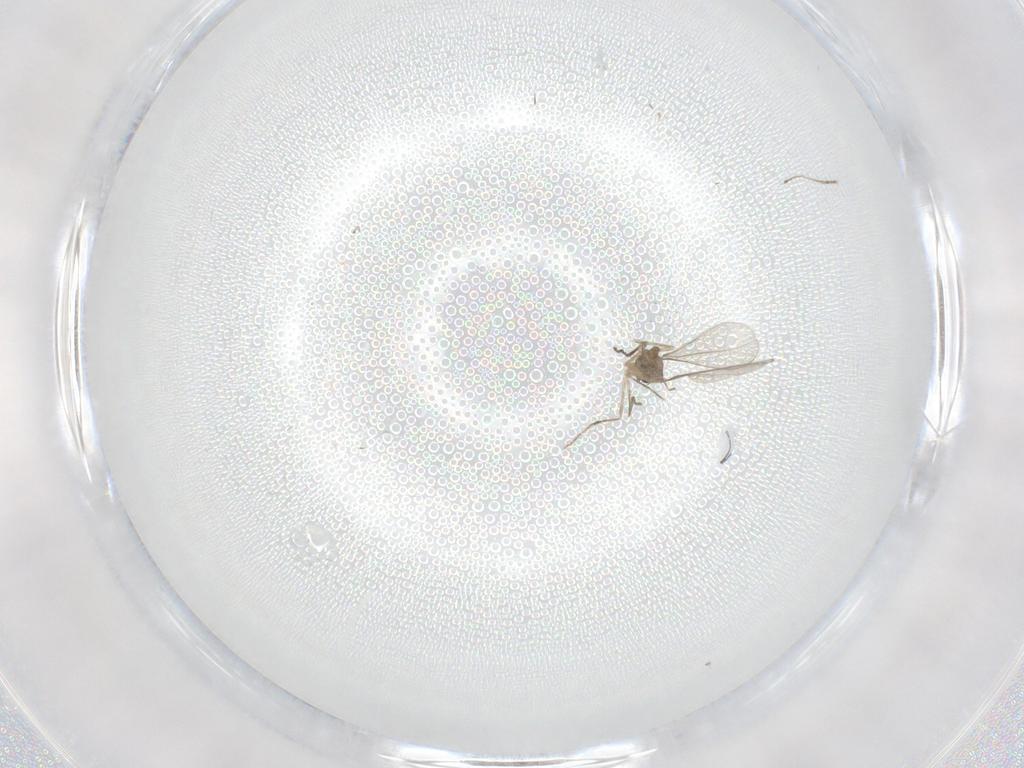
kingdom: Animalia
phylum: Arthropoda
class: Insecta
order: Diptera
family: Cecidomyiidae
